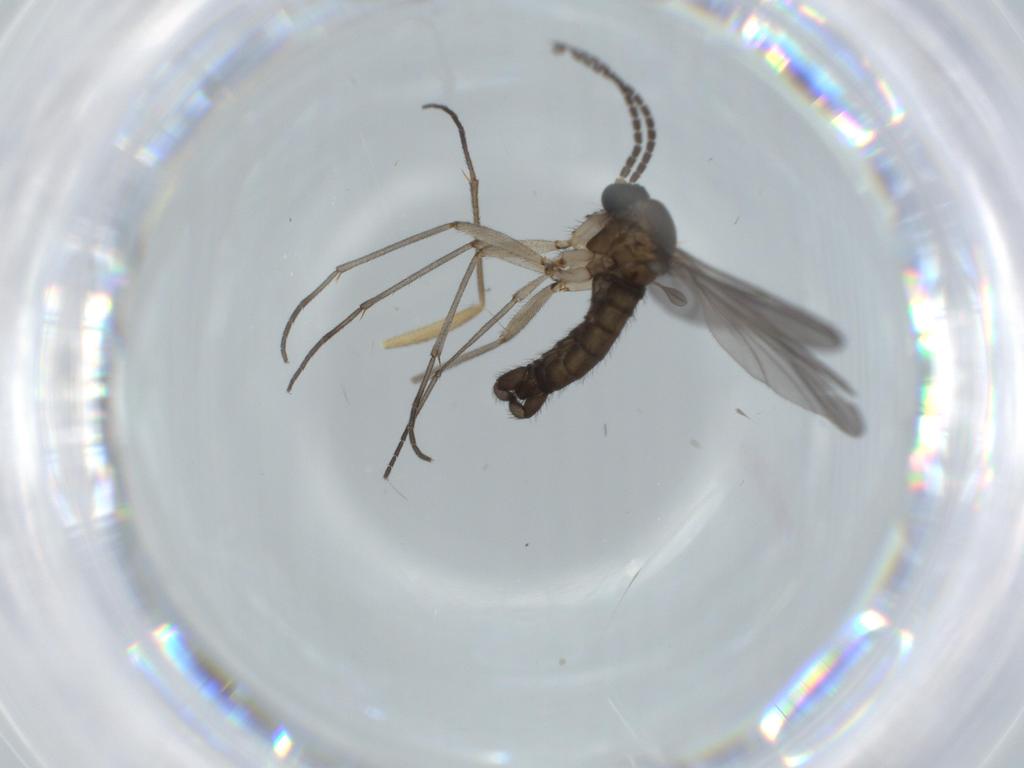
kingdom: Animalia
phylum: Arthropoda
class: Insecta
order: Diptera
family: Sciaridae
